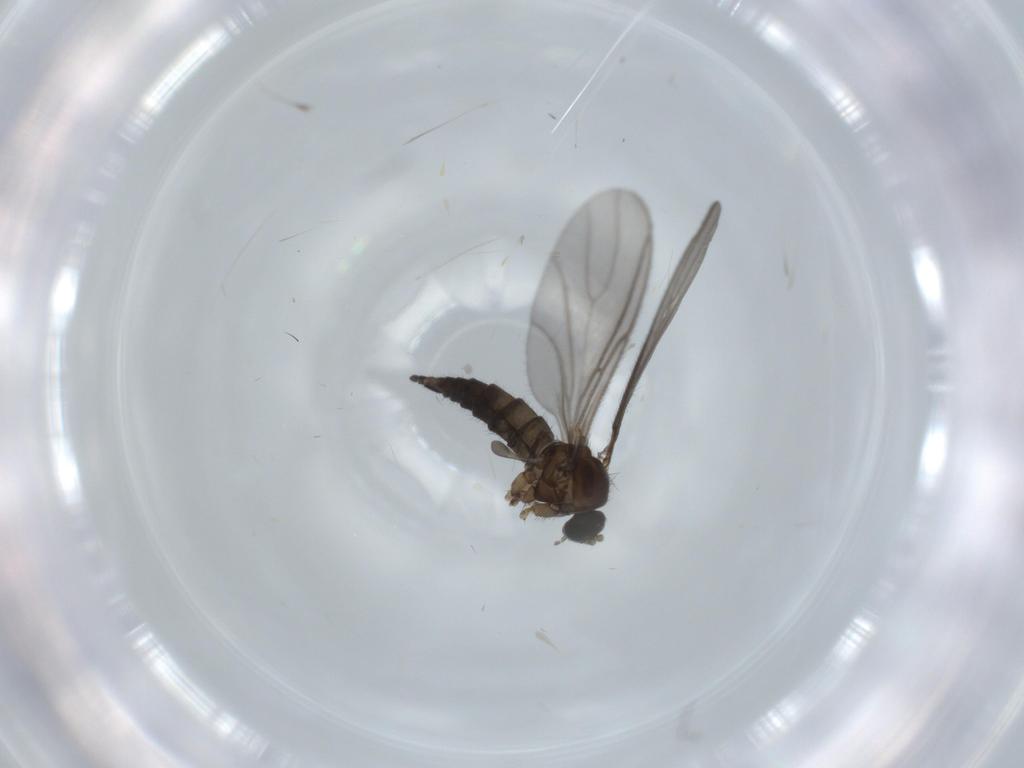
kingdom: Animalia
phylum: Arthropoda
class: Insecta
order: Diptera
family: Sciaridae
